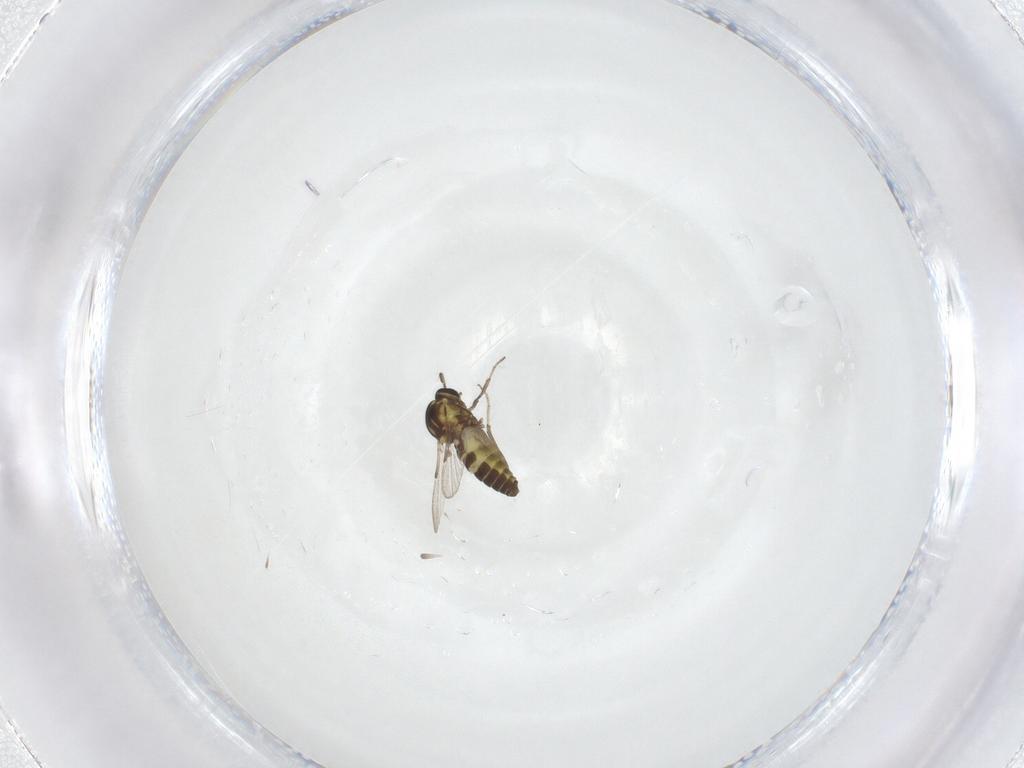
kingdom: Animalia
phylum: Arthropoda
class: Insecta
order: Diptera
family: Ceratopogonidae
